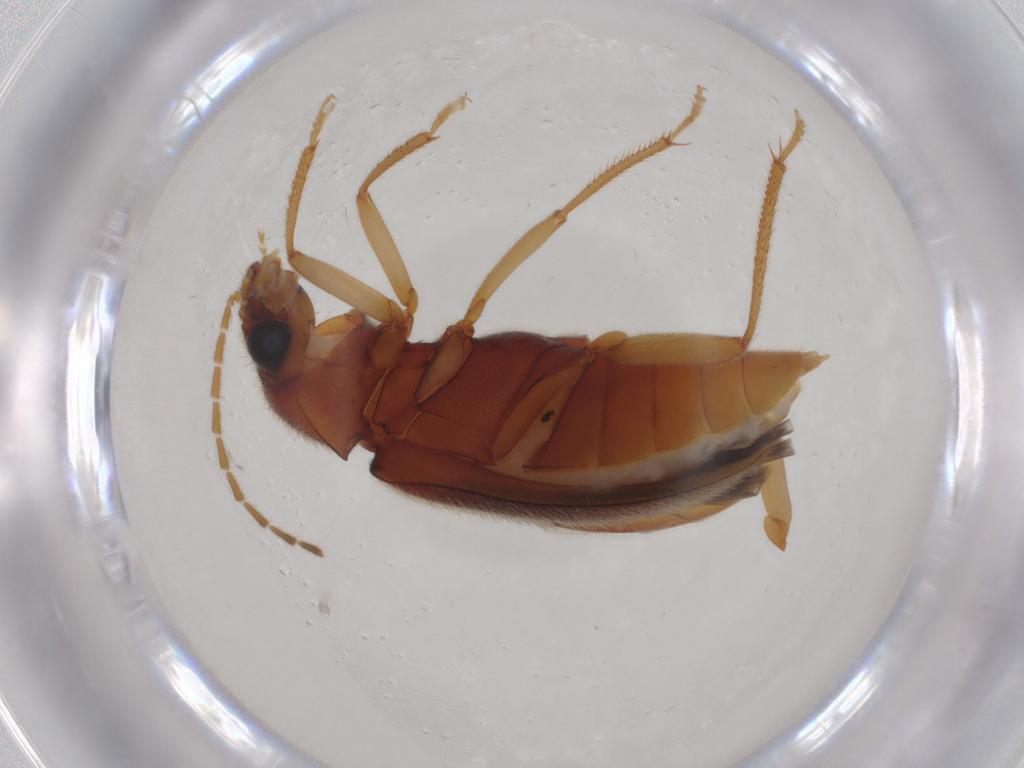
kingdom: Animalia
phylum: Arthropoda
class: Insecta
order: Coleoptera
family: Ptilodactylidae
